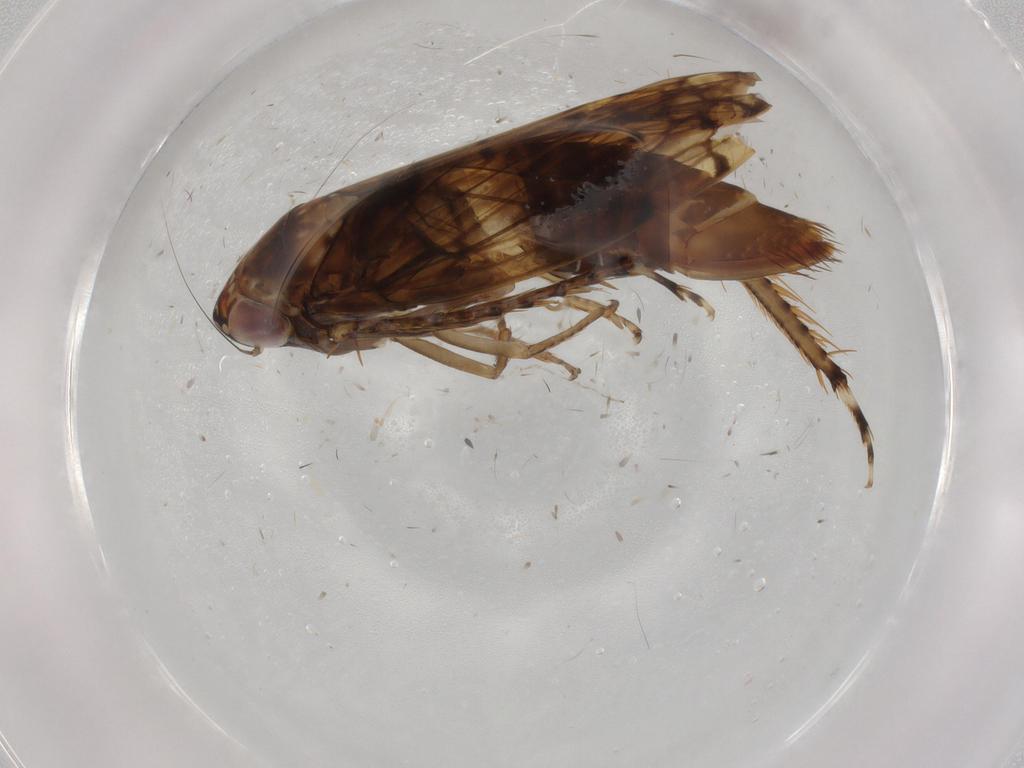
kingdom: Animalia
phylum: Arthropoda
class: Insecta
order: Hemiptera
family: Cicadellidae
